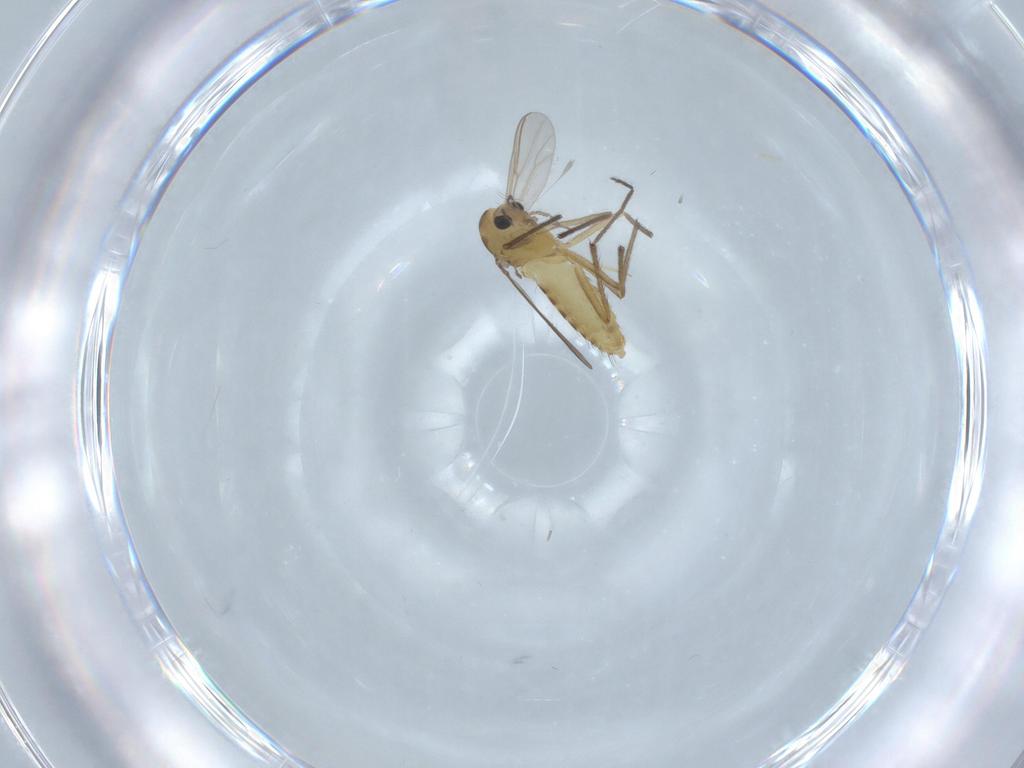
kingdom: Animalia
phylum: Arthropoda
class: Insecta
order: Diptera
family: Chironomidae
